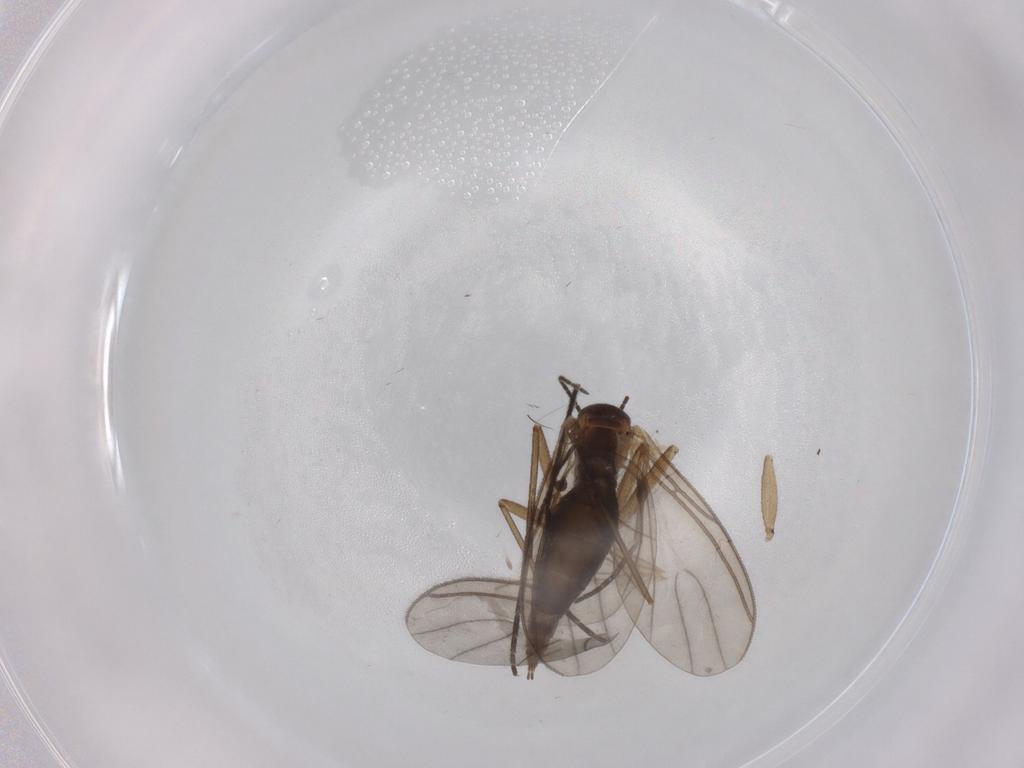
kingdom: Animalia
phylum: Arthropoda
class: Insecta
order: Diptera
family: Sciaridae
